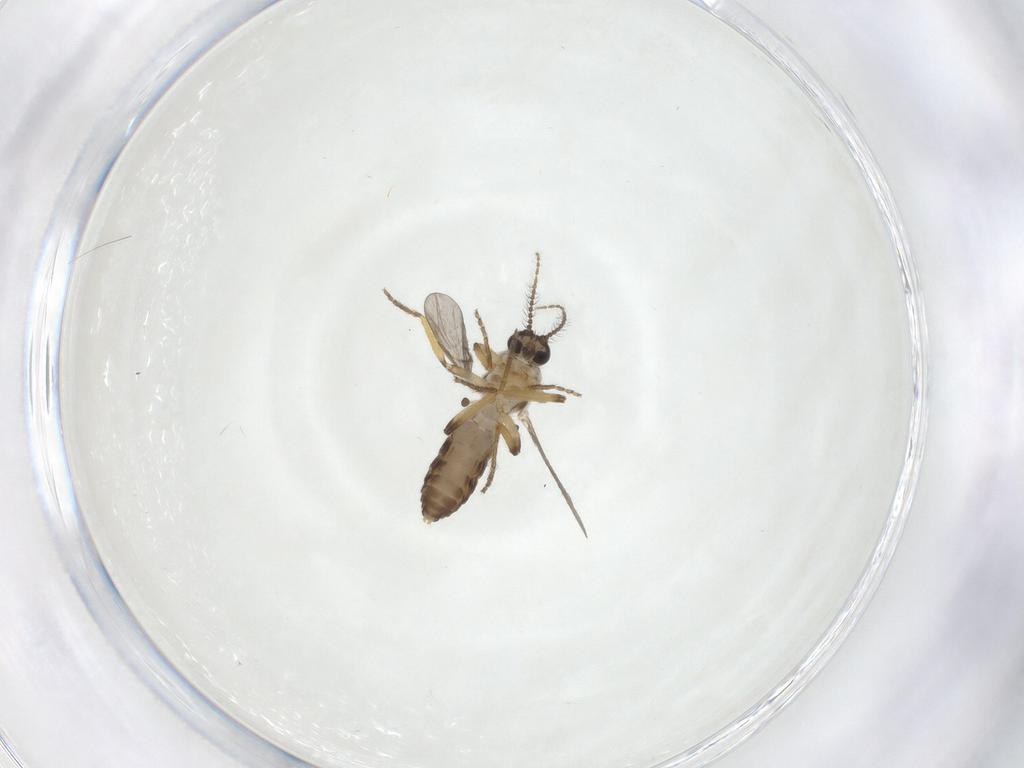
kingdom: Animalia
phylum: Arthropoda
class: Insecta
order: Diptera
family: Ceratopogonidae
